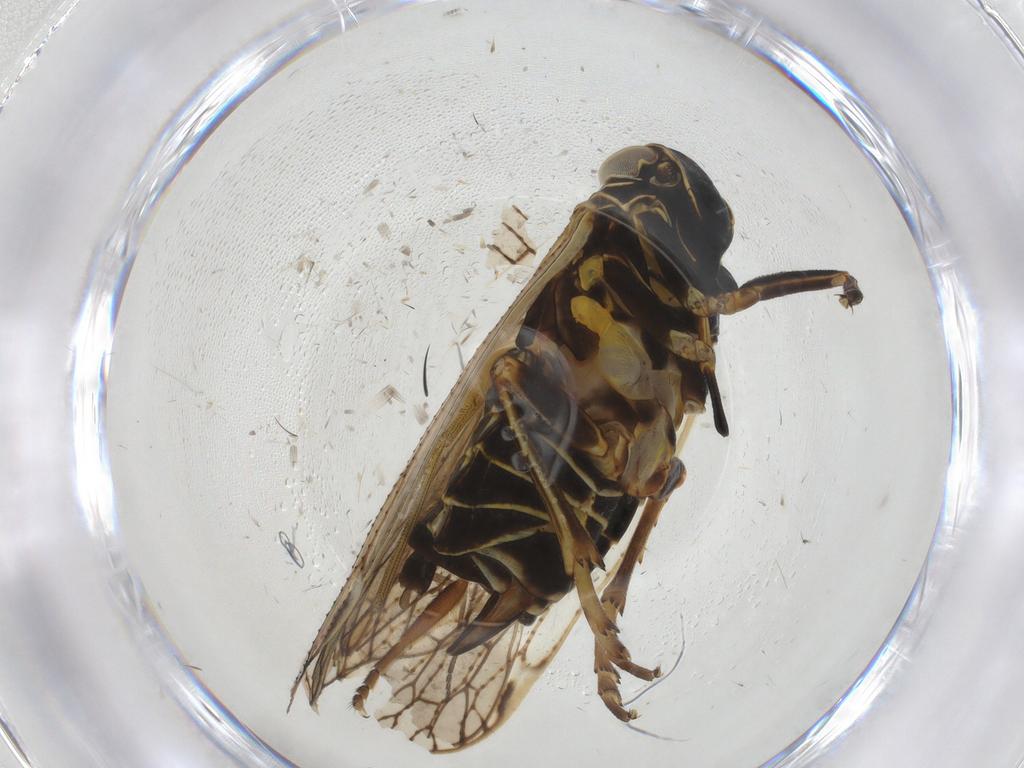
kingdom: Animalia
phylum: Arthropoda
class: Insecta
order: Hemiptera
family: Cixiidae
